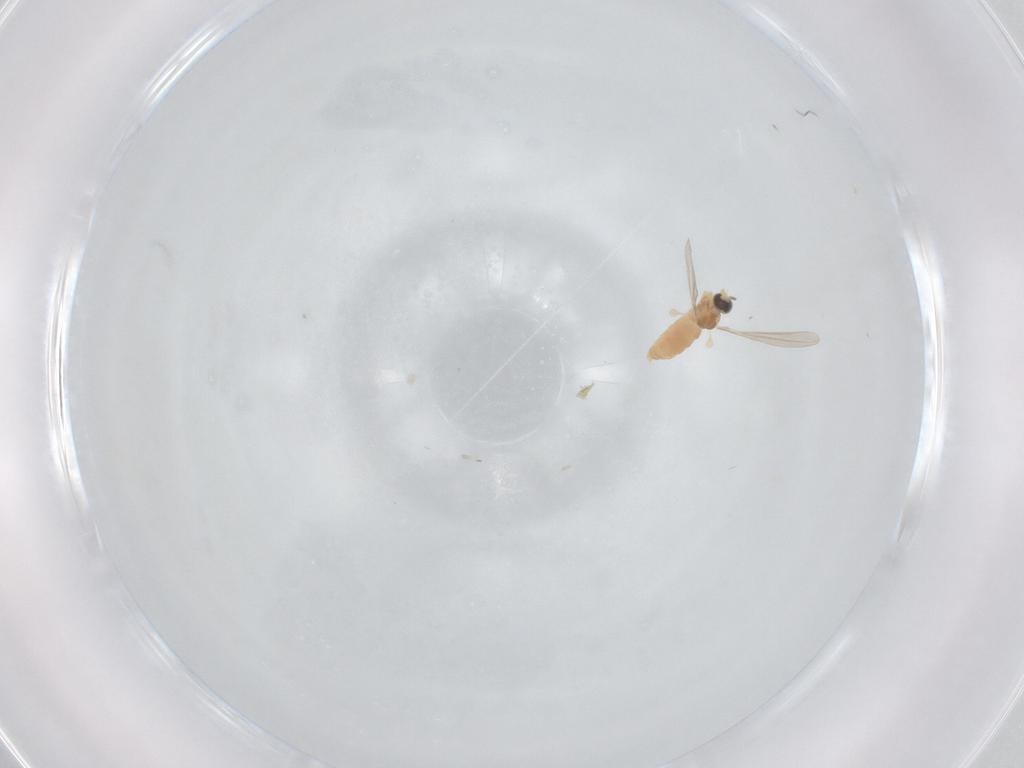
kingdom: Animalia
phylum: Arthropoda
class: Insecta
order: Diptera
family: Cecidomyiidae
